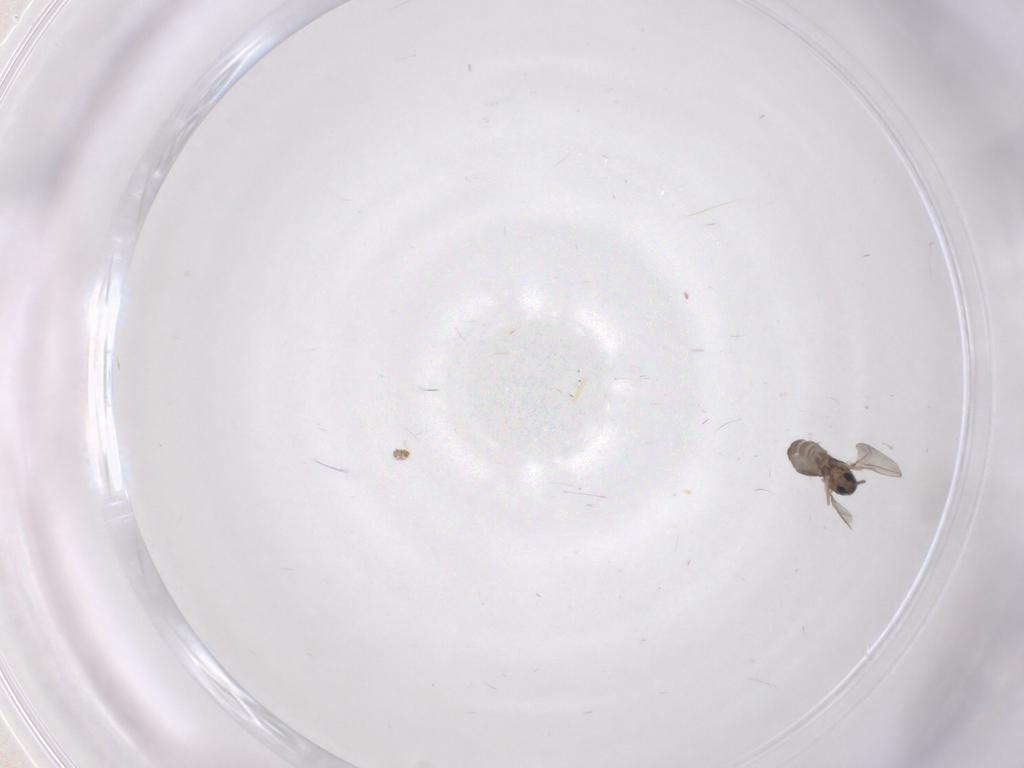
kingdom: Animalia
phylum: Arthropoda
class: Insecta
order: Diptera
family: Cecidomyiidae
